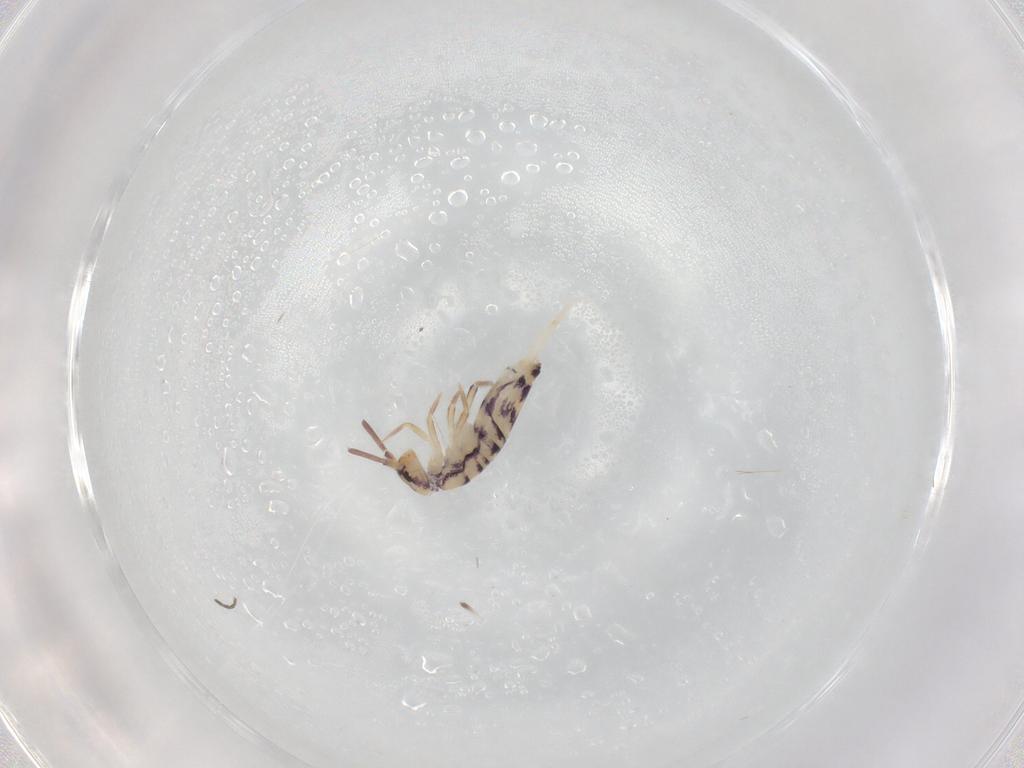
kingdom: Animalia
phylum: Arthropoda
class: Collembola
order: Entomobryomorpha
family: Entomobryidae
